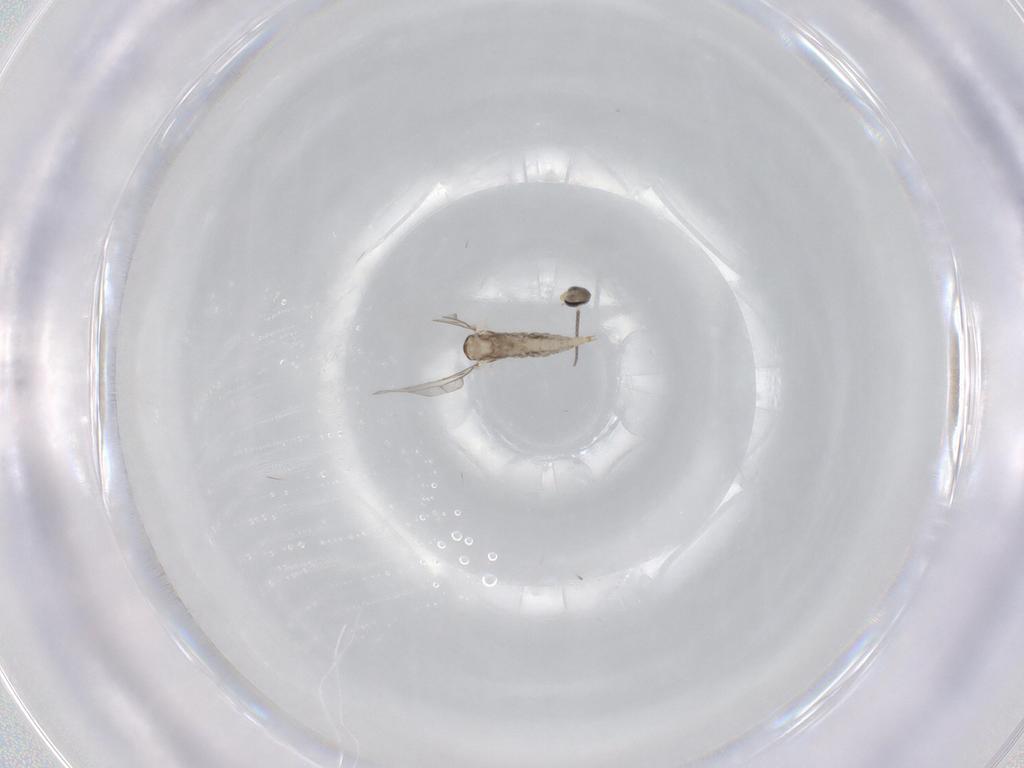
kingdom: Animalia
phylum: Arthropoda
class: Insecta
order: Diptera
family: Cecidomyiidae
